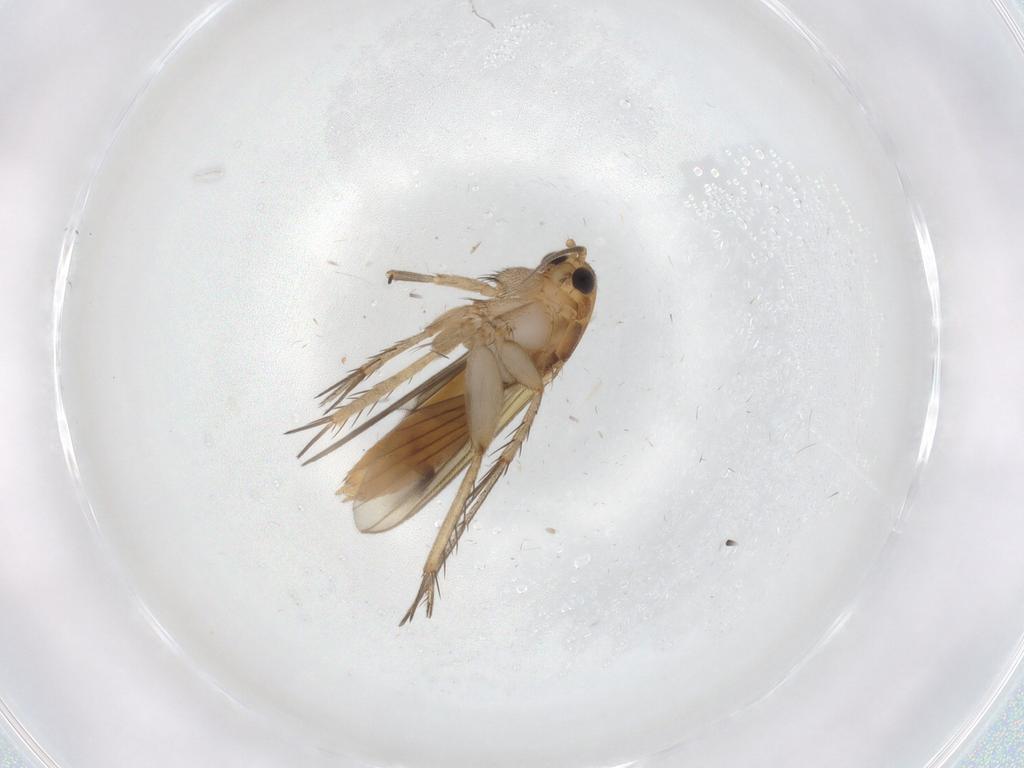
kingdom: Animalia
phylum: Arthropoda
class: Insecta
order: Diptera
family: Mycetophilidae
